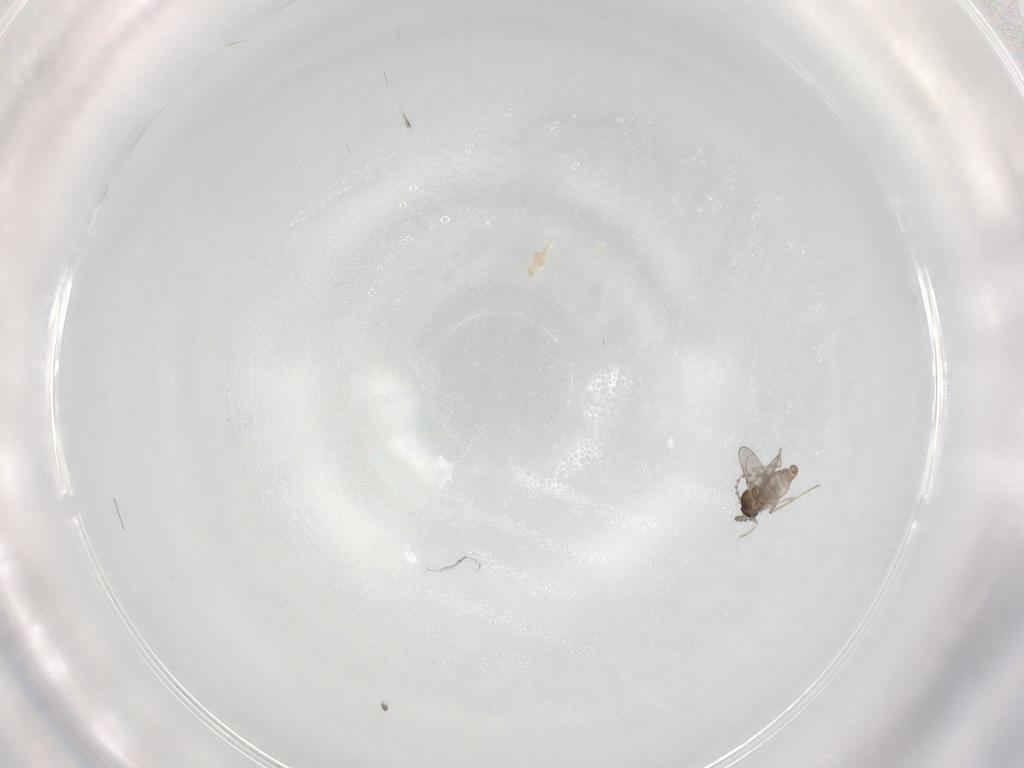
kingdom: Animalia
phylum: Arthropoda
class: Insecta
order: Diptera
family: Cecidomyiidae
